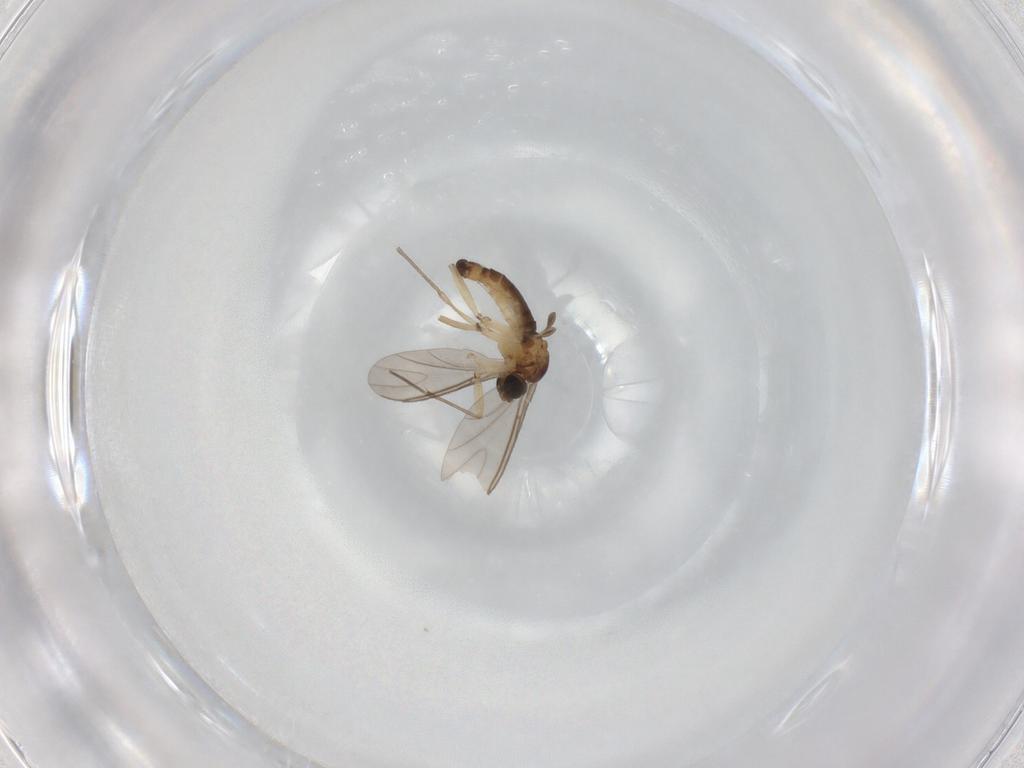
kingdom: Animalia
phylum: Arthropoda
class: Insecta
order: Diptera
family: Sciaridae
